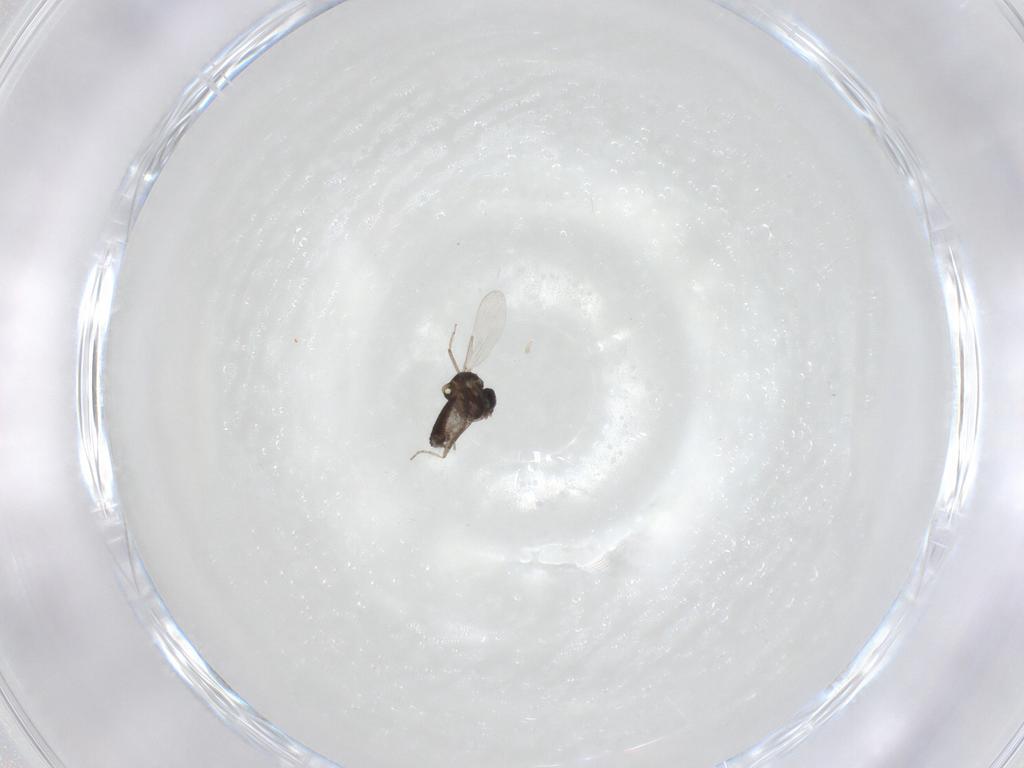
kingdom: Animalia
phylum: Arthropoda
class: Insecta
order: Diptera
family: Ceratopogonidae
